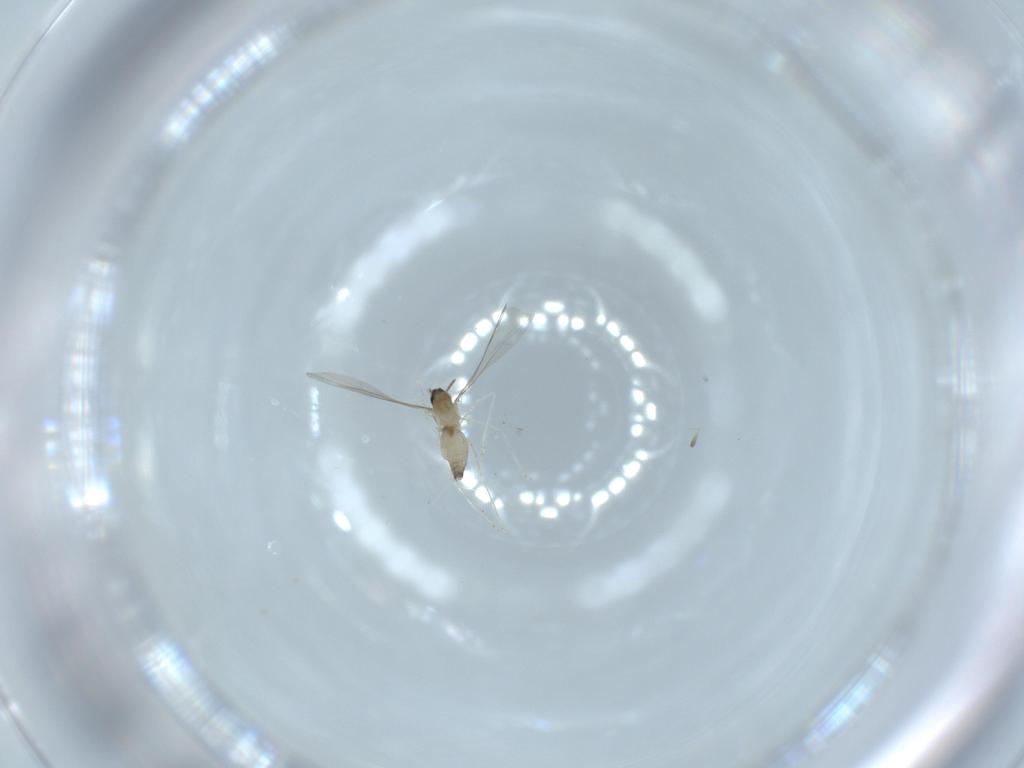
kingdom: Animalia
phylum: Arthropoda
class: Insecta
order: Diptera
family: Cecidomyiidae
